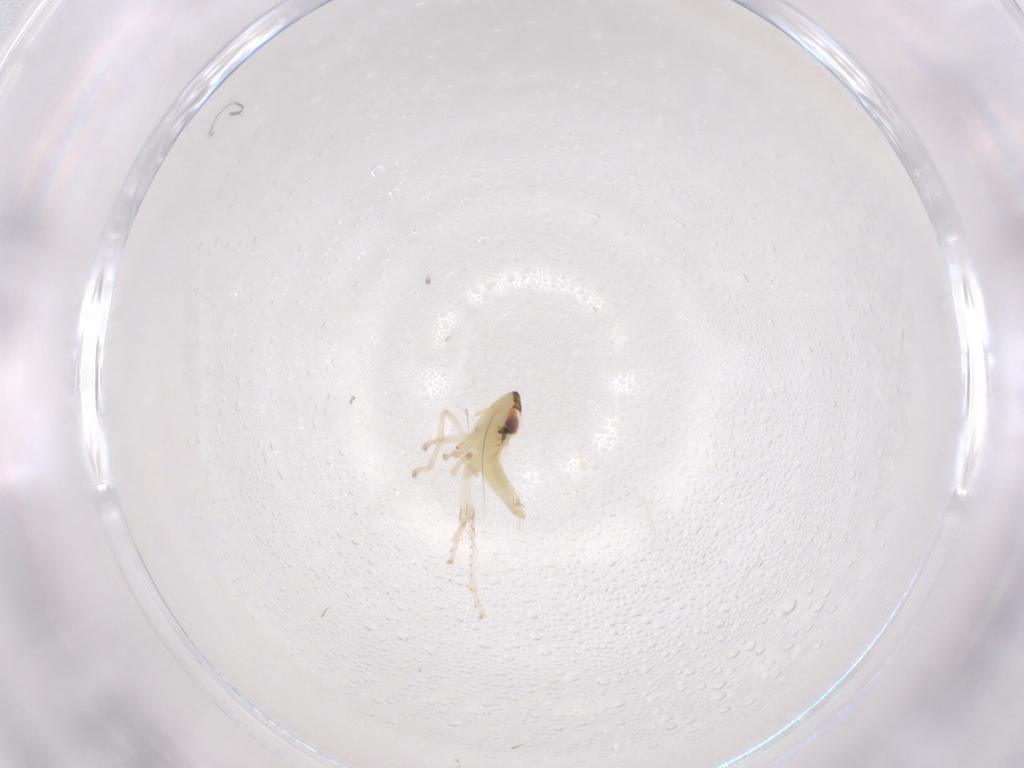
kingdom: Animalia
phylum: Arthropoda
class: Insecta
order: Hemiptera
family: Cicadellidae
